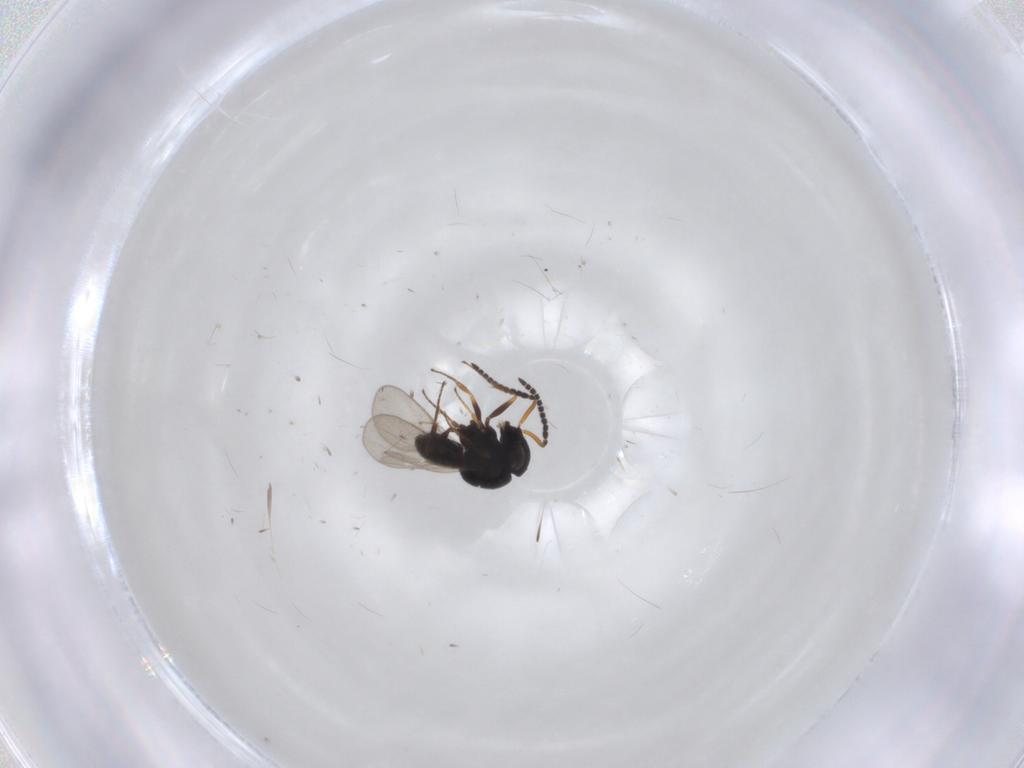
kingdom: Animalia
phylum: Arthropoda
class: Insecta
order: Hymenoptera
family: Scelionidae
